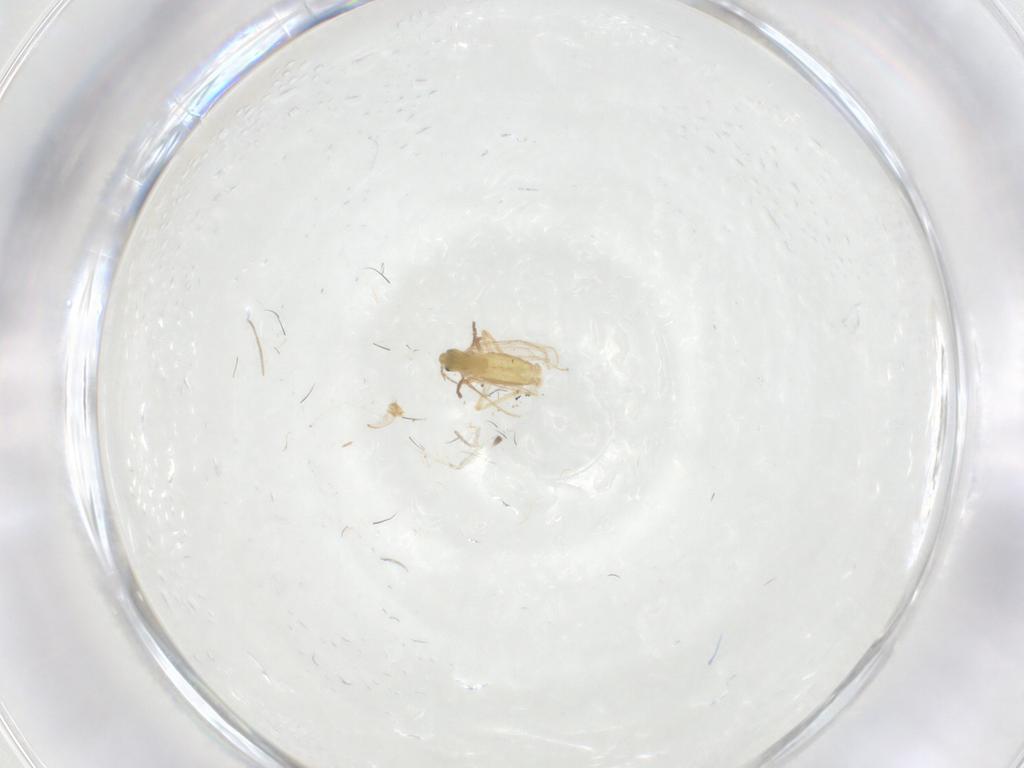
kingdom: Animalia
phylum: Arthropoda
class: Insecta
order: Diptera
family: Chironomidae
